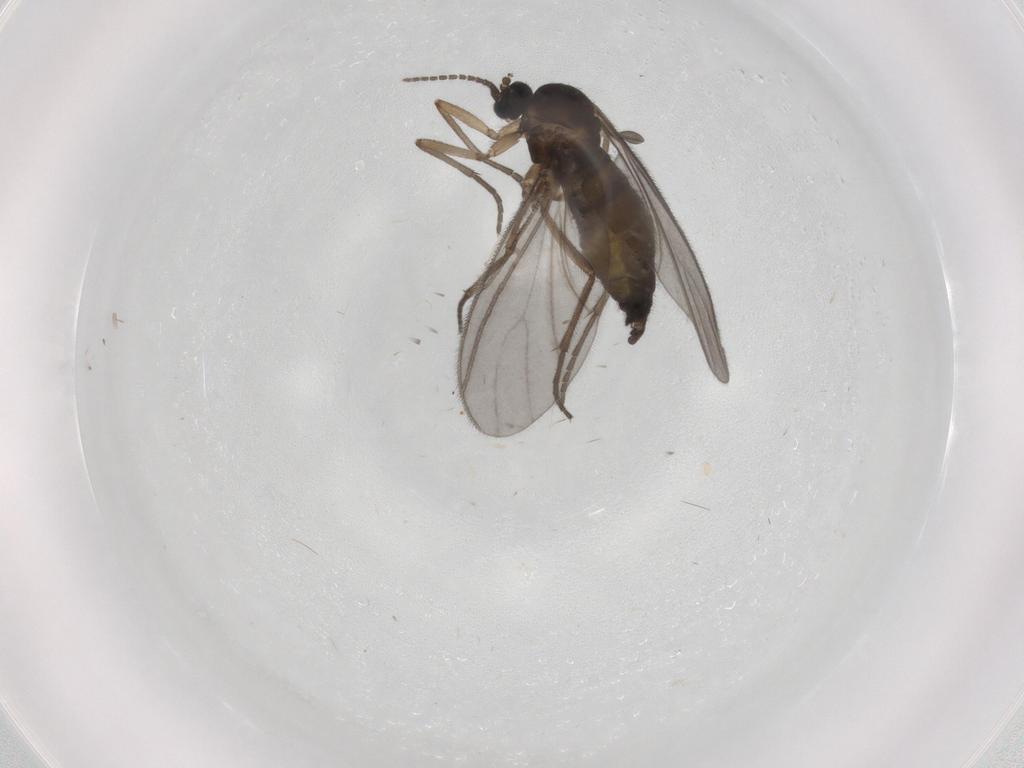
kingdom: Animalia
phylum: Arthropoda
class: Insecta
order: Diptera
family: Sciaridae
